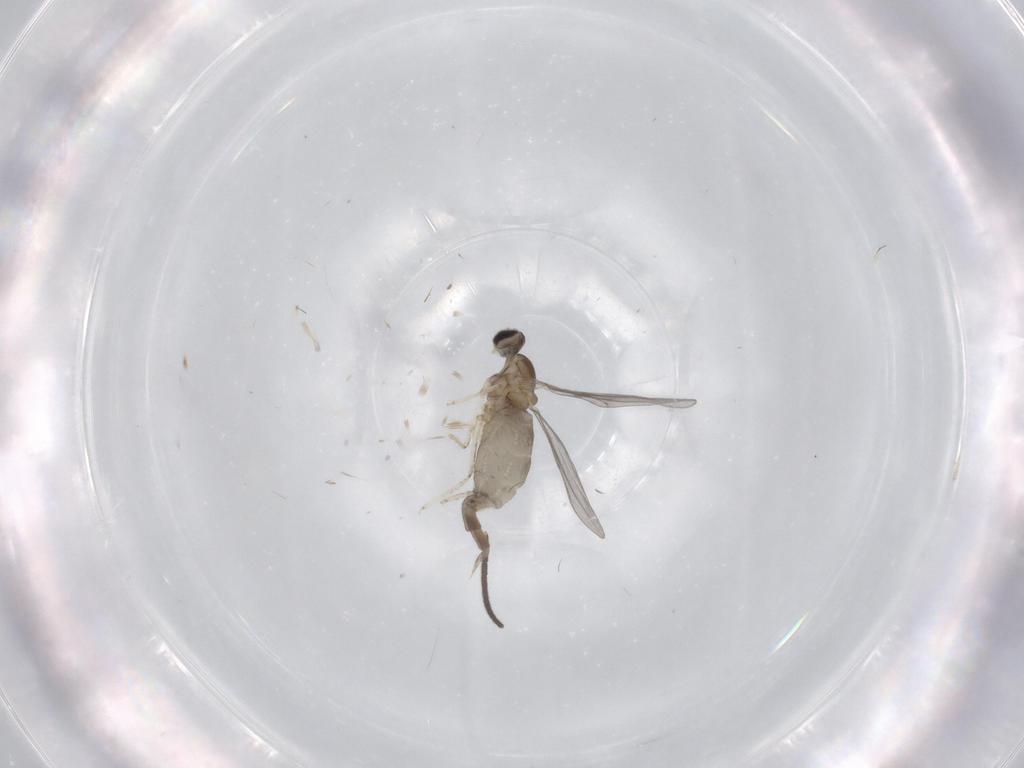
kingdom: Animalia
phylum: Arthropoda
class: Insecta
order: Diptera
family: Cecidomyiidae
